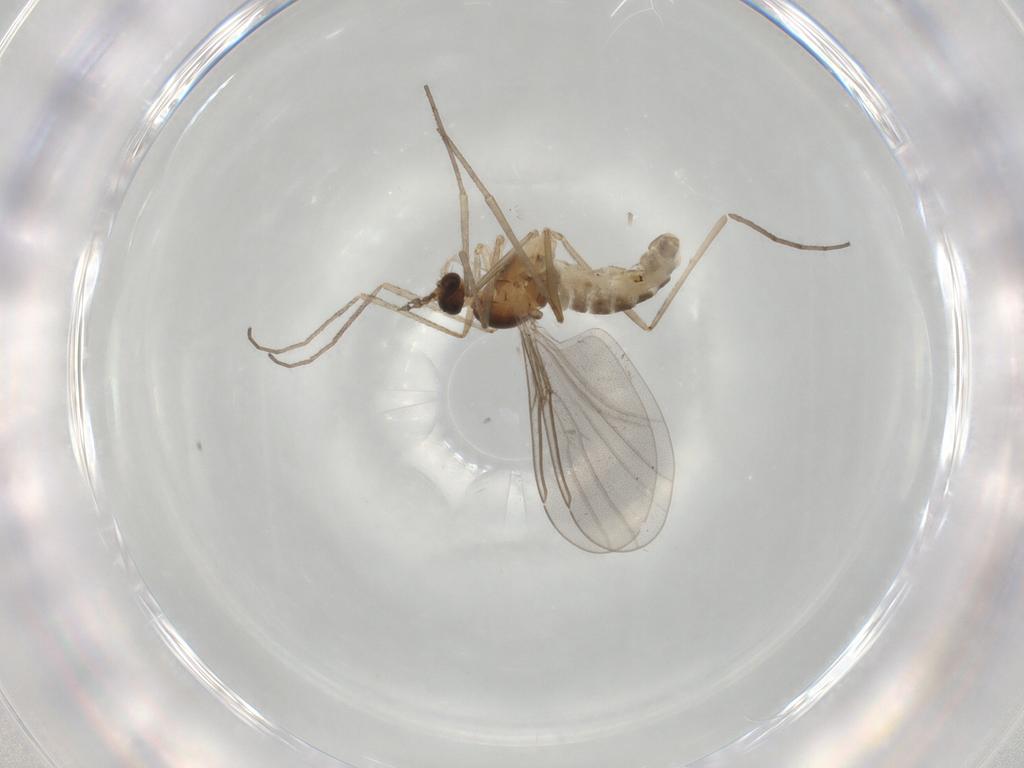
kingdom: Animalia
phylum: Arthropoda
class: Insecta
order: Diptera
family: Cecidomyiidae
